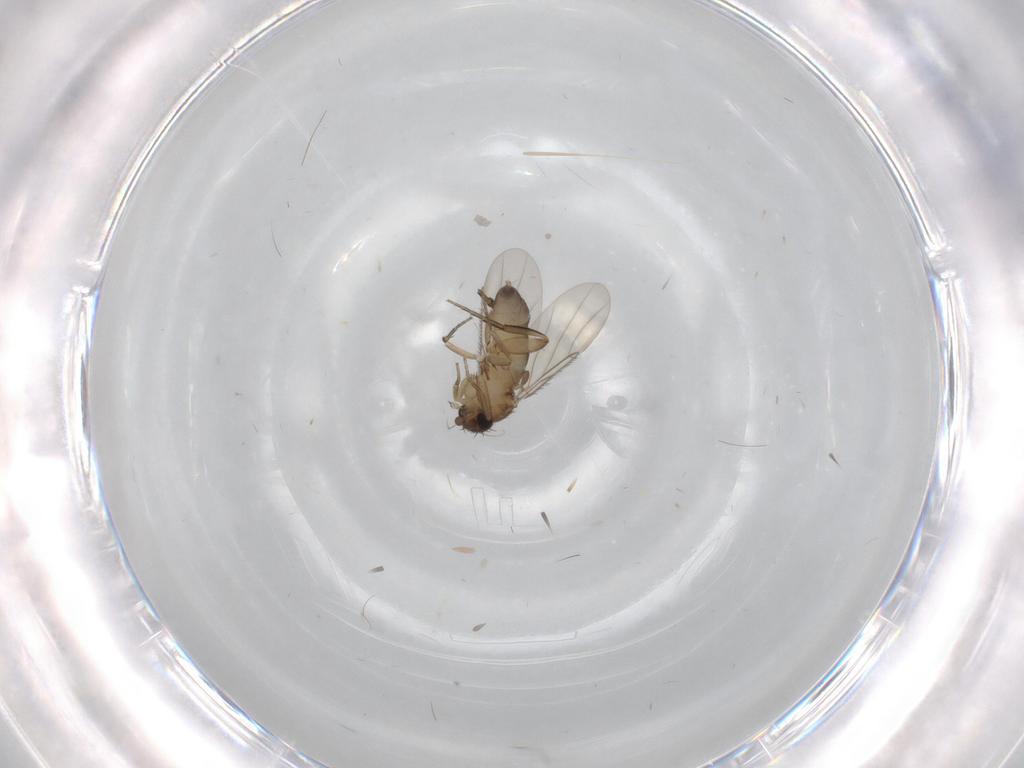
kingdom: Animalia
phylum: Arthropoda
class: Insecta
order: Diptera
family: Phoridae
